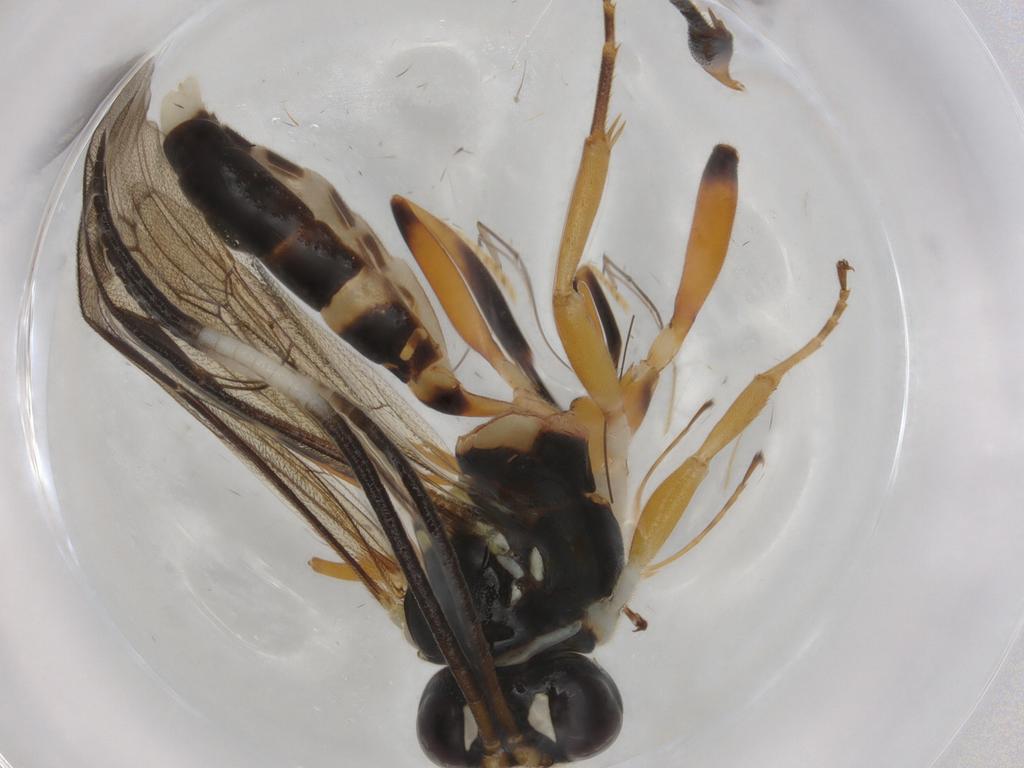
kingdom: Animalia
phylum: Arthropoda
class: Insecta
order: Hymenoptera
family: Ichneumonidae
